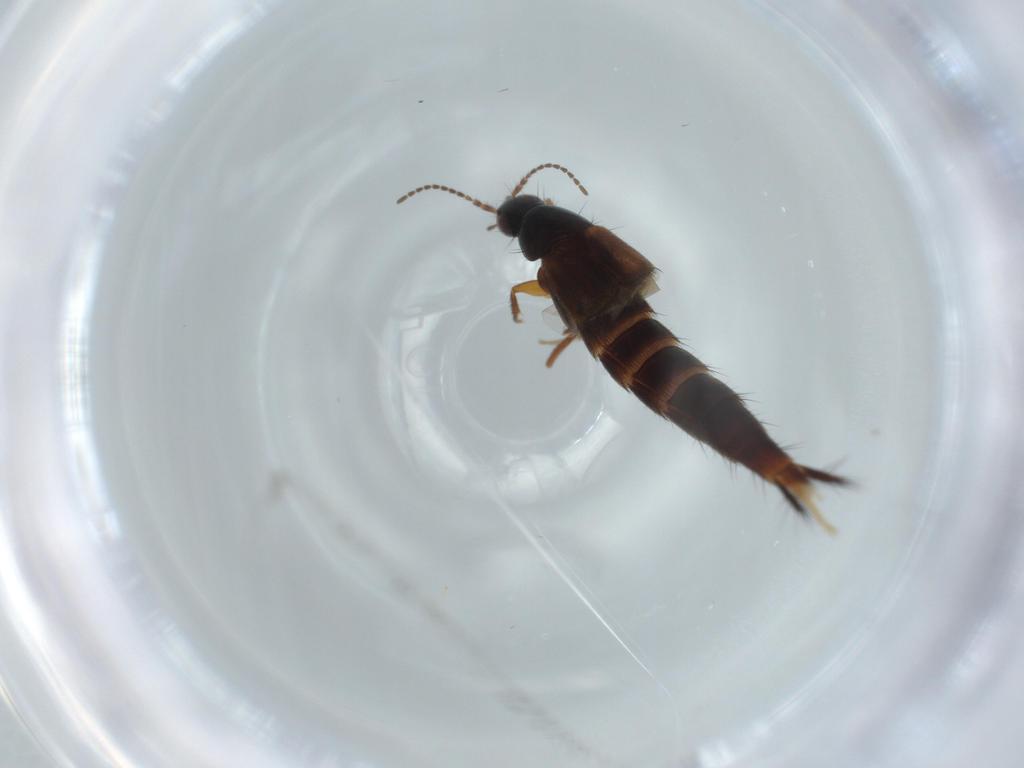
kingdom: Animalia
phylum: Arthropoda
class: Insecta
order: Coleoptera
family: Staphylinidae
